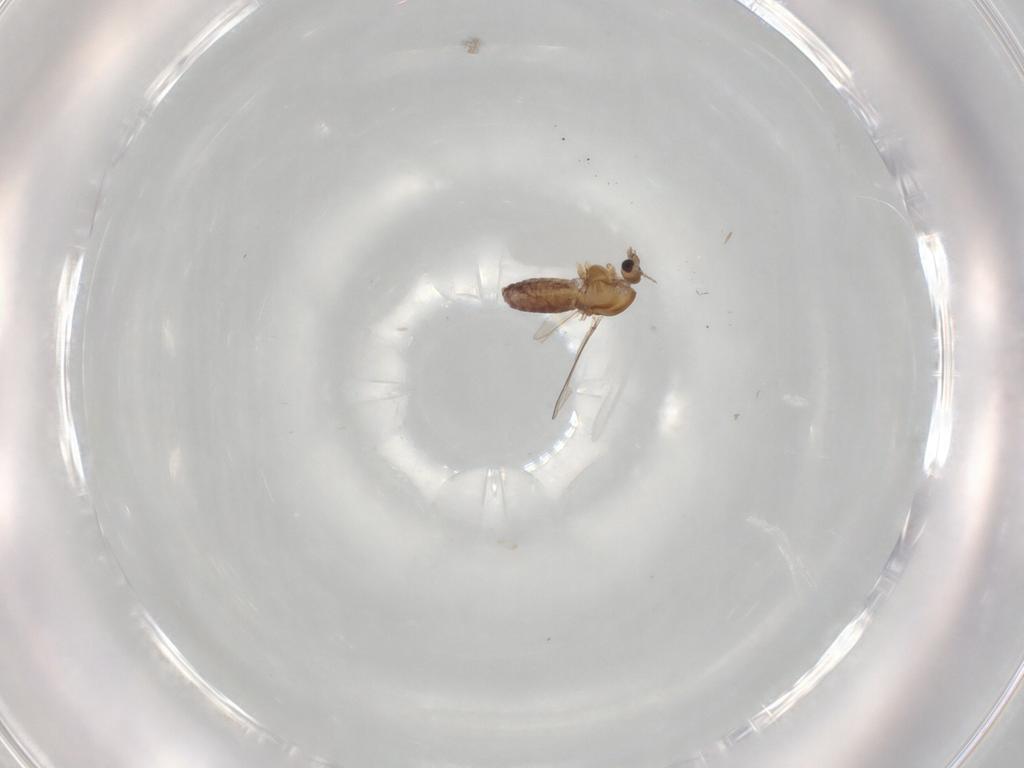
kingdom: Animalia
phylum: Arthropoda
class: Insecta
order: Diptera
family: Chironomidae
